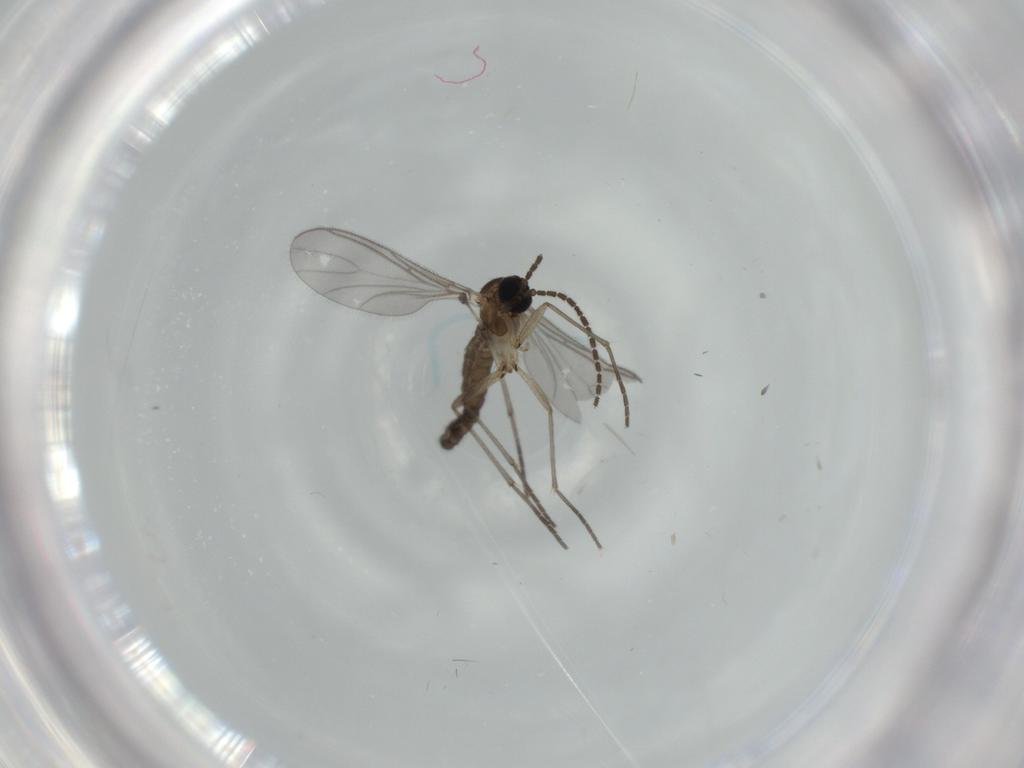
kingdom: Animalia
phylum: Arthropoda
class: Insecta
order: Diptera
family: Sciaridae
